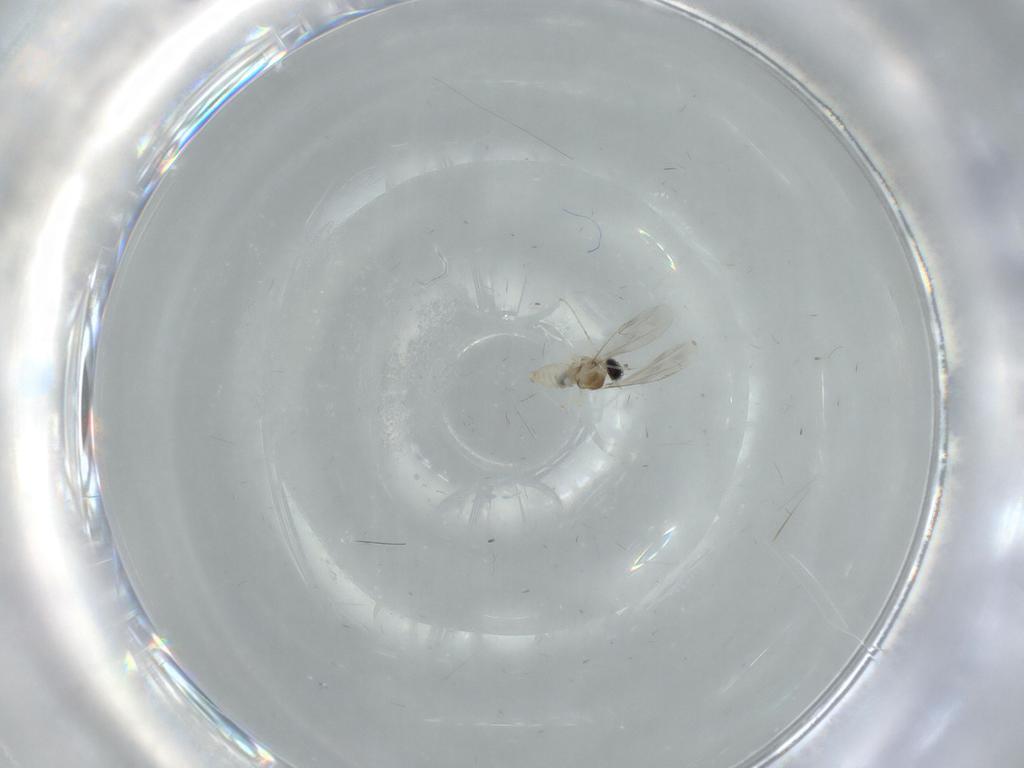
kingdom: Animalia
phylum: Arthropoda
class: Insecta
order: Diptera
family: Cecidomyiidae
